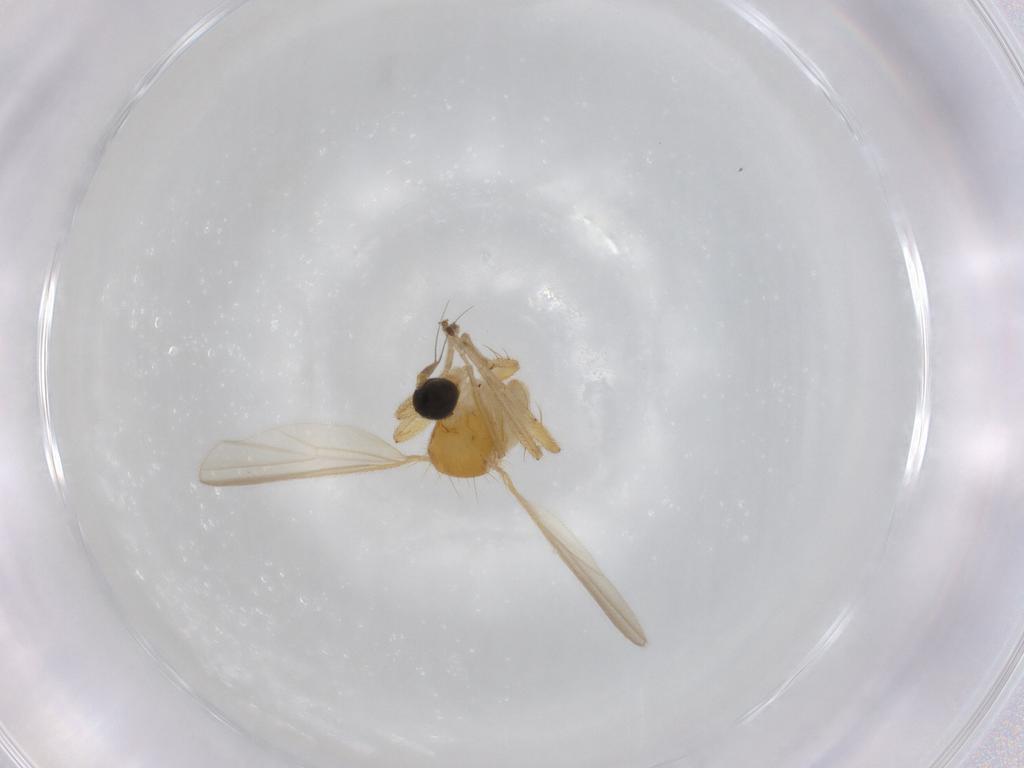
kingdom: Animalia
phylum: Arthropoda
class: Insecta
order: Diptera
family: Hybotidae
